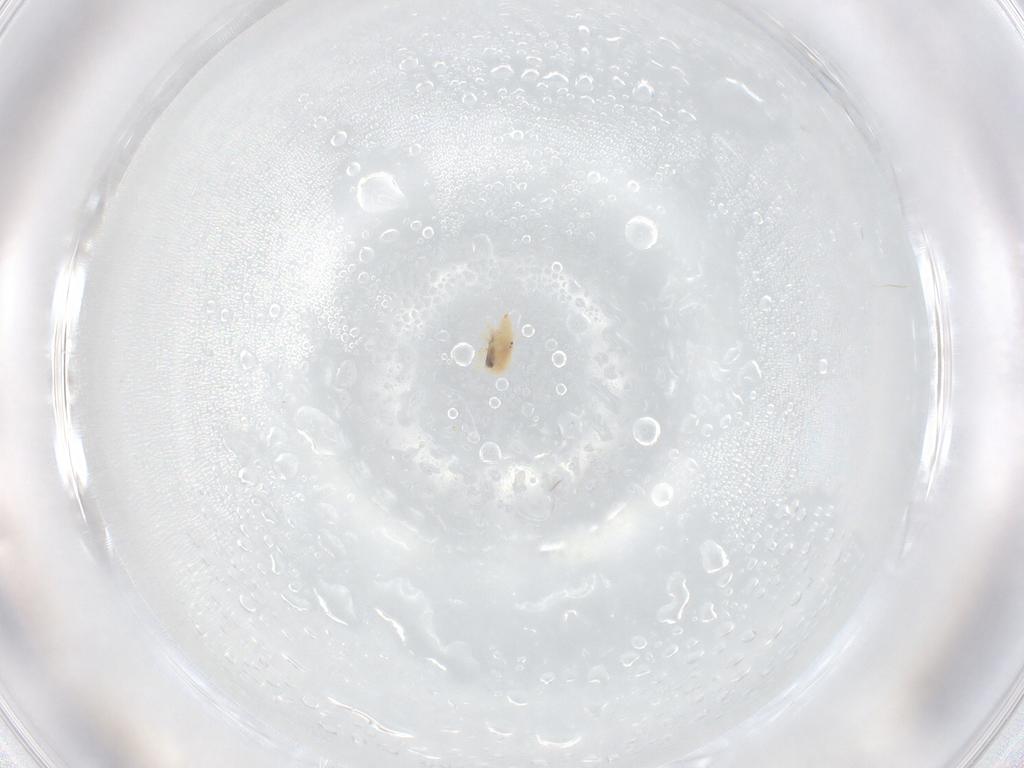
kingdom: Animalia
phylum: Arthropoda
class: Arachnida
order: Trombidiformes
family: Bdellidae
